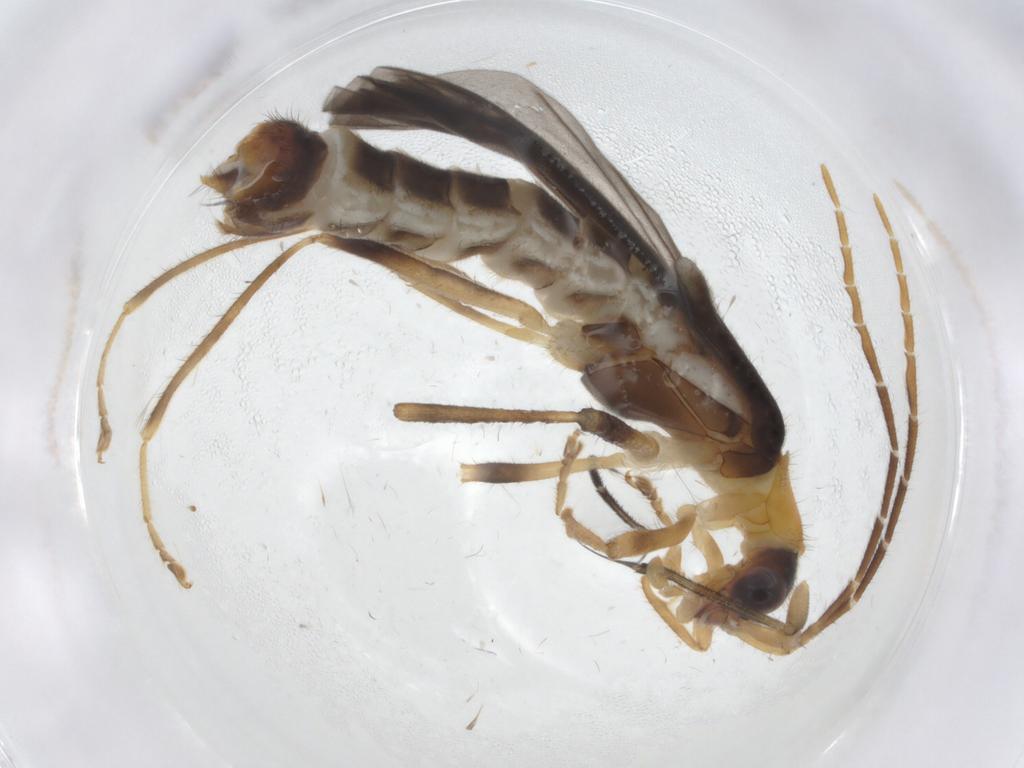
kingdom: Animalia
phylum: Arthropoda
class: Insecta
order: Coleoptera
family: Cantharidae
